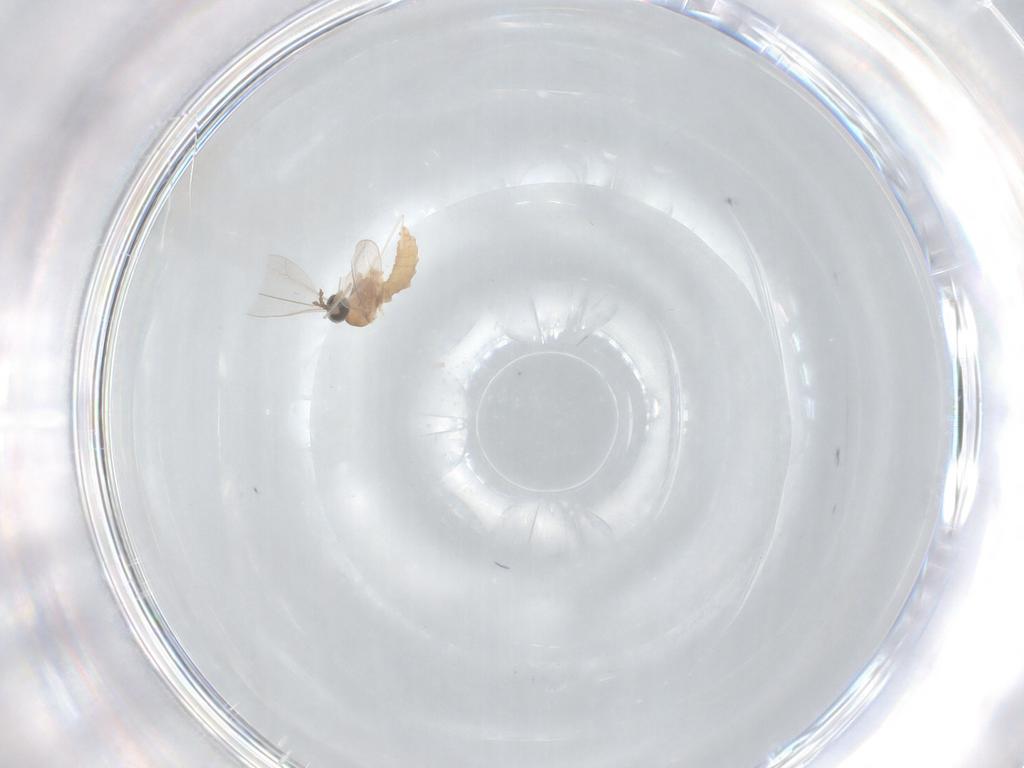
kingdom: Animalia
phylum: Arthropoda
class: Insecta
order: Diptera
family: Cecidomyiidae
